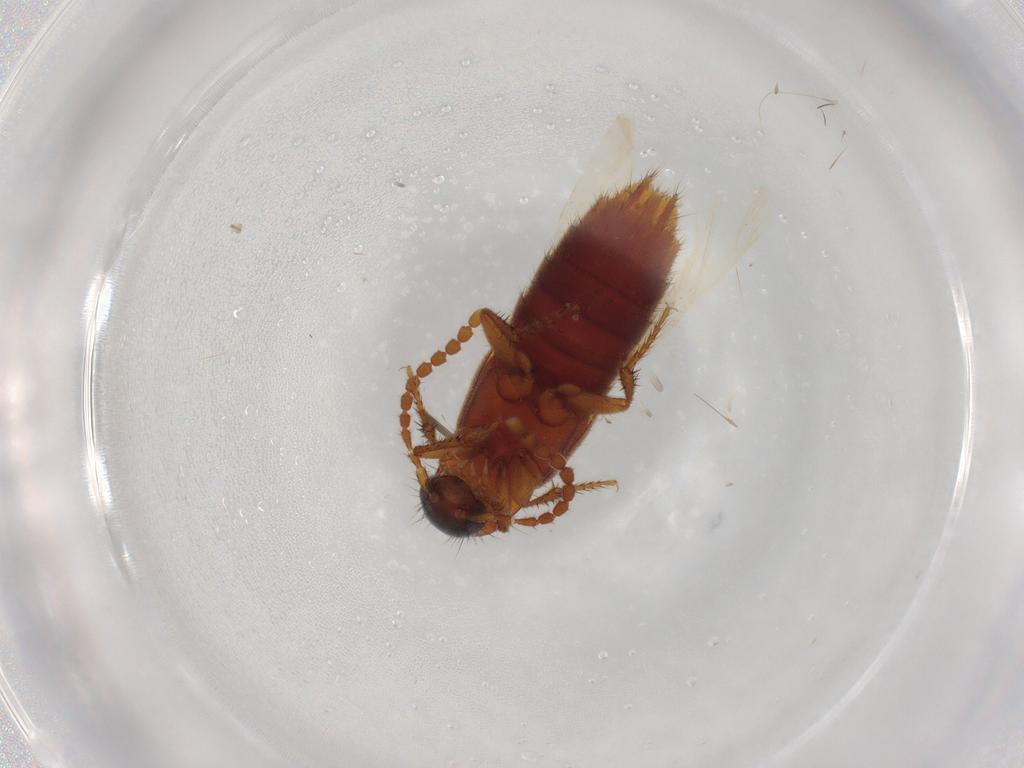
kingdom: Animalia
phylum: Arthropoda
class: Insecta
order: Coleoptera
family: Staphylinidae
